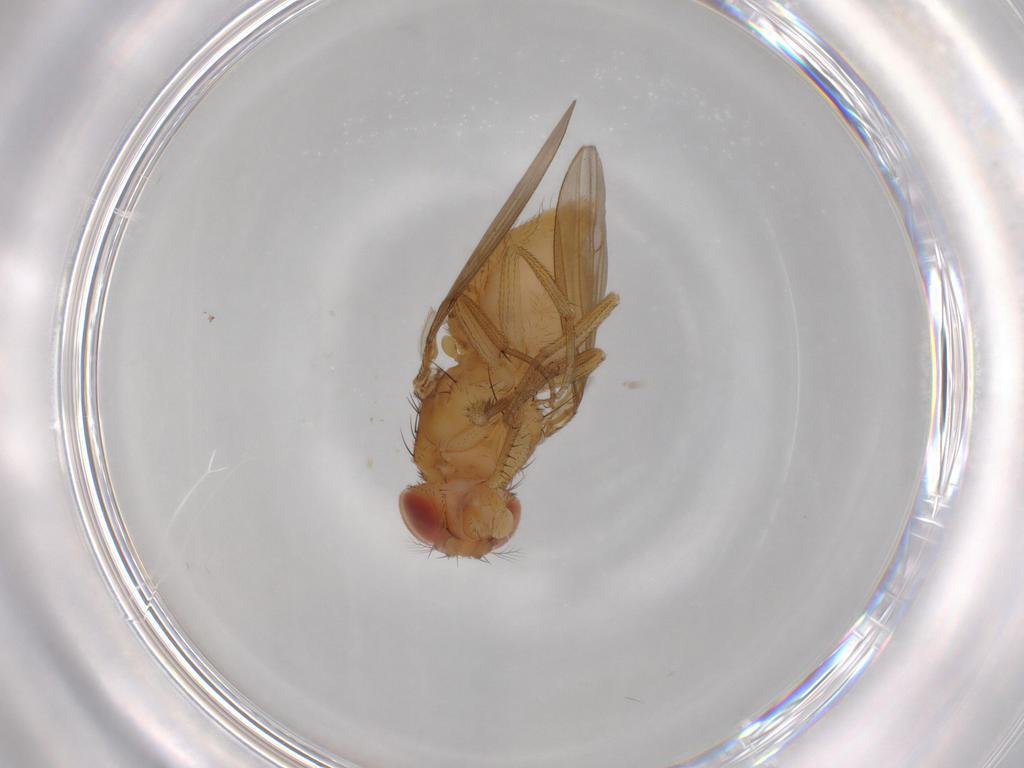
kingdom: Animalia
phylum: Arthropoda
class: Insecta
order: Diptera
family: Drosophilidae
